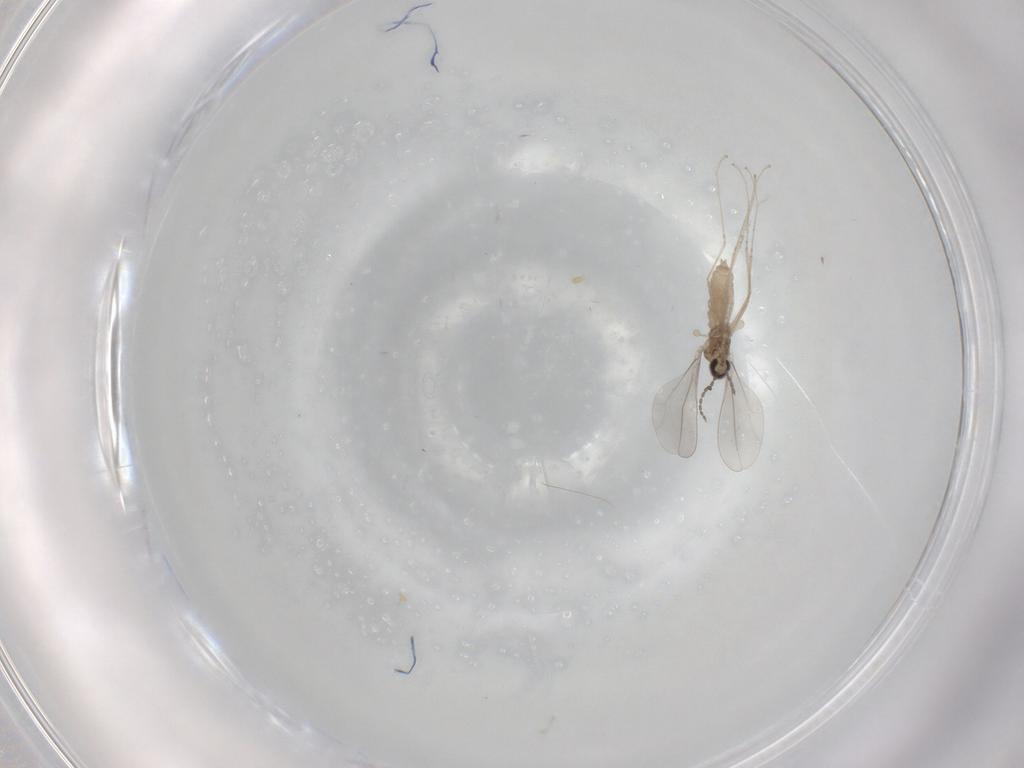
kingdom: Animalia
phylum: Arthropoda
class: Insecta
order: Diptera
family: Cecidomyiidae
